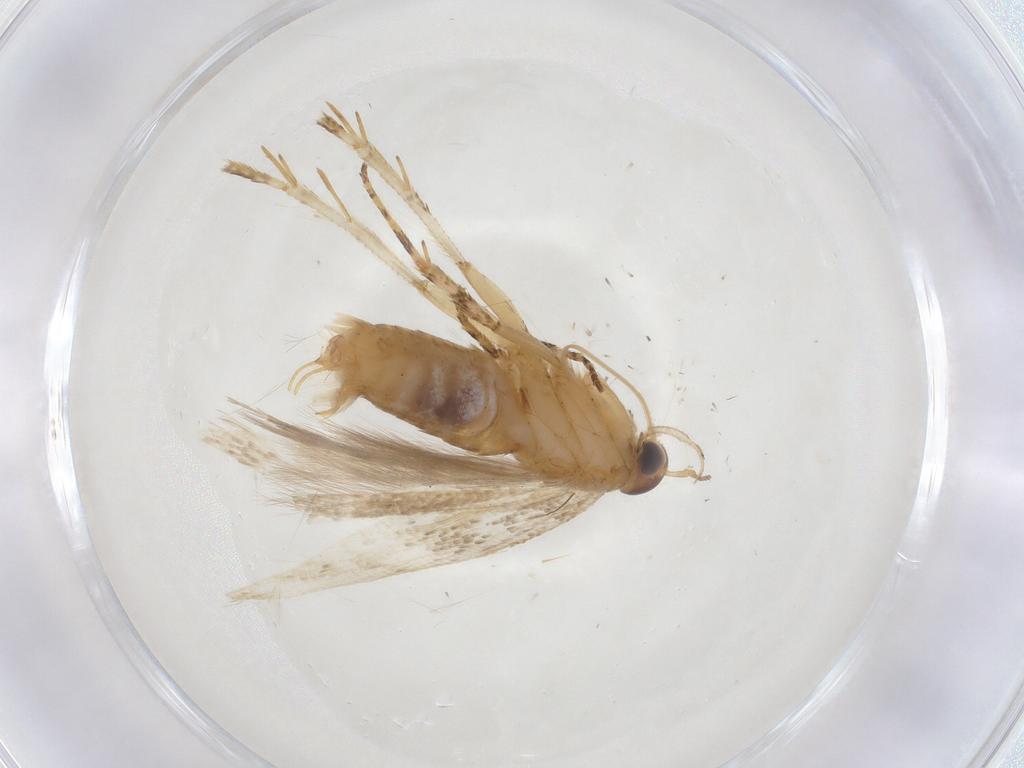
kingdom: Animalia
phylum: Arthropoda
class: Insecta
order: Lepidoptera
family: Gelechiidae
